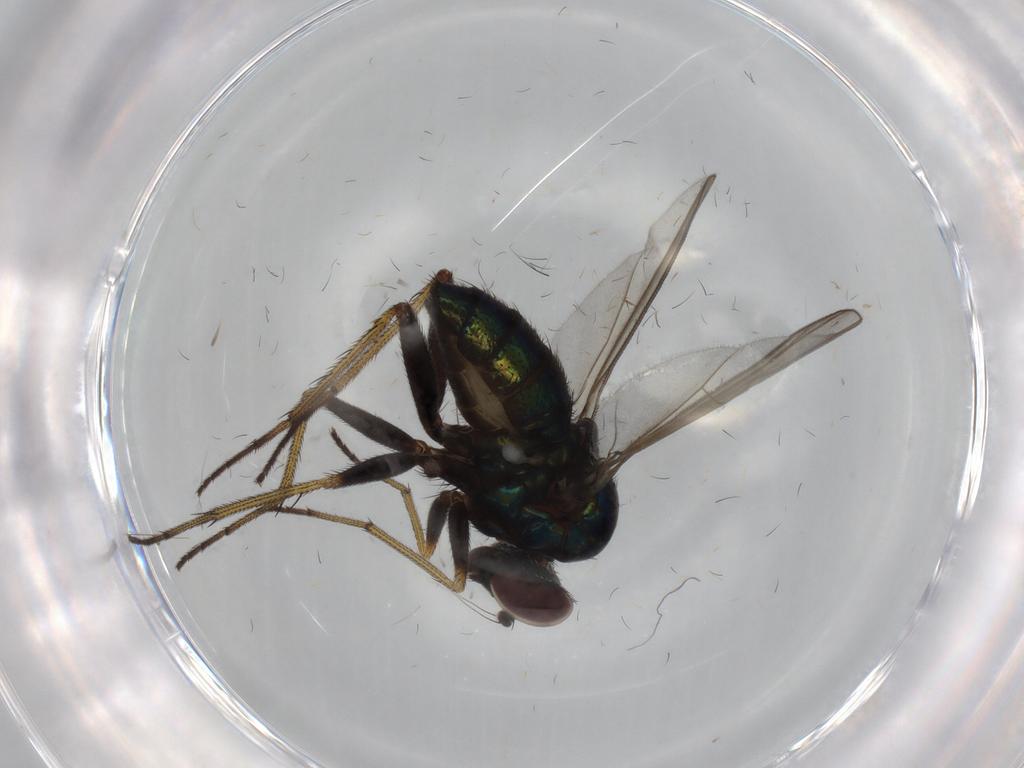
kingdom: Animalia
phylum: Arthropoda
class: Insecta
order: Diptera
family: Dolichopodidae
